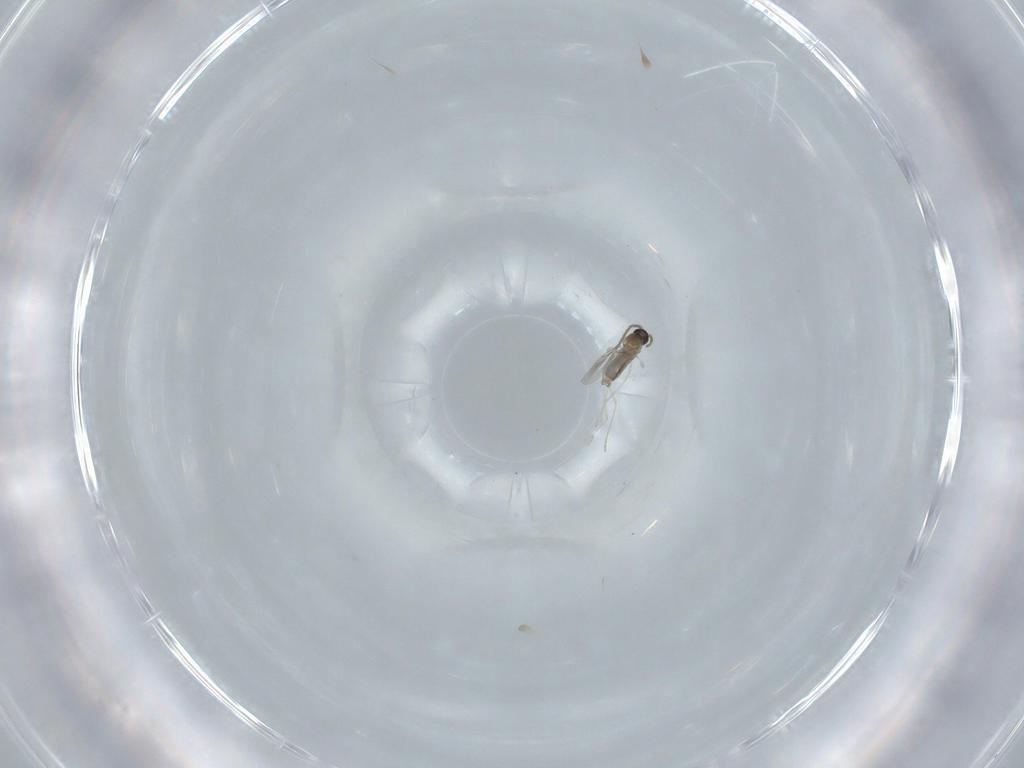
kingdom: Animalia
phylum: Arthropoda
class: Insecta
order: Diptera
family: Cecidomyiidae
